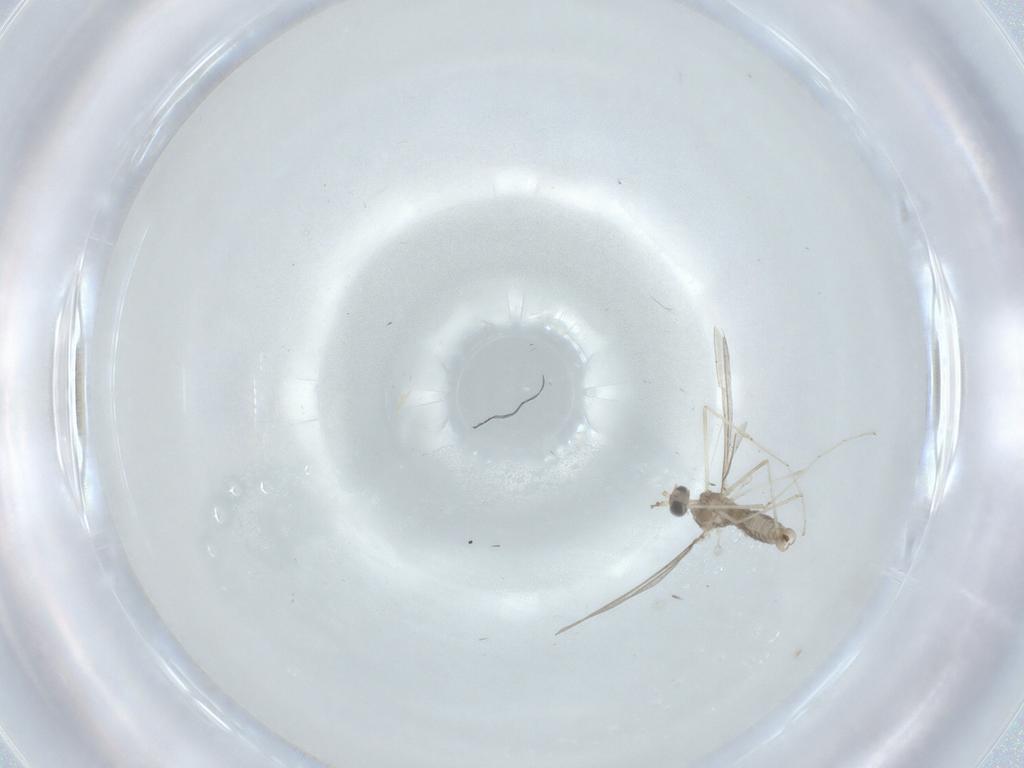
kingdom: Animalia
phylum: Arthropoda
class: Insecta
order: Diptera
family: Cecidomyiidae
